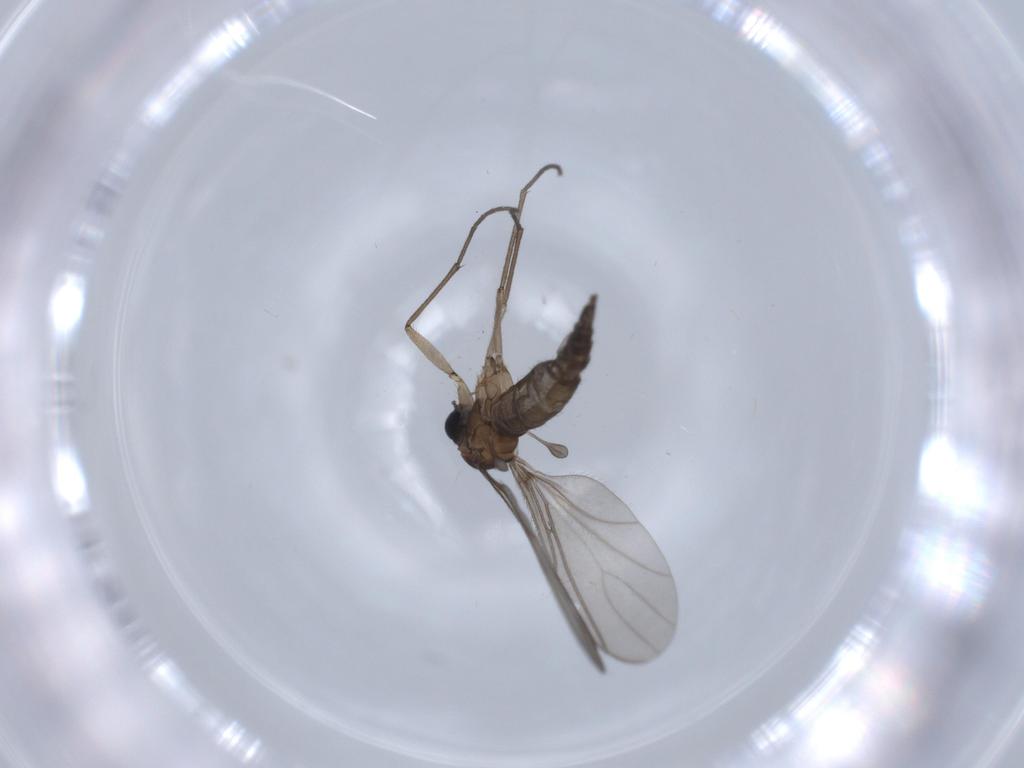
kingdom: Animalia
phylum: Arthropoda
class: Insecta
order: Diptera
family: Sciaridae
